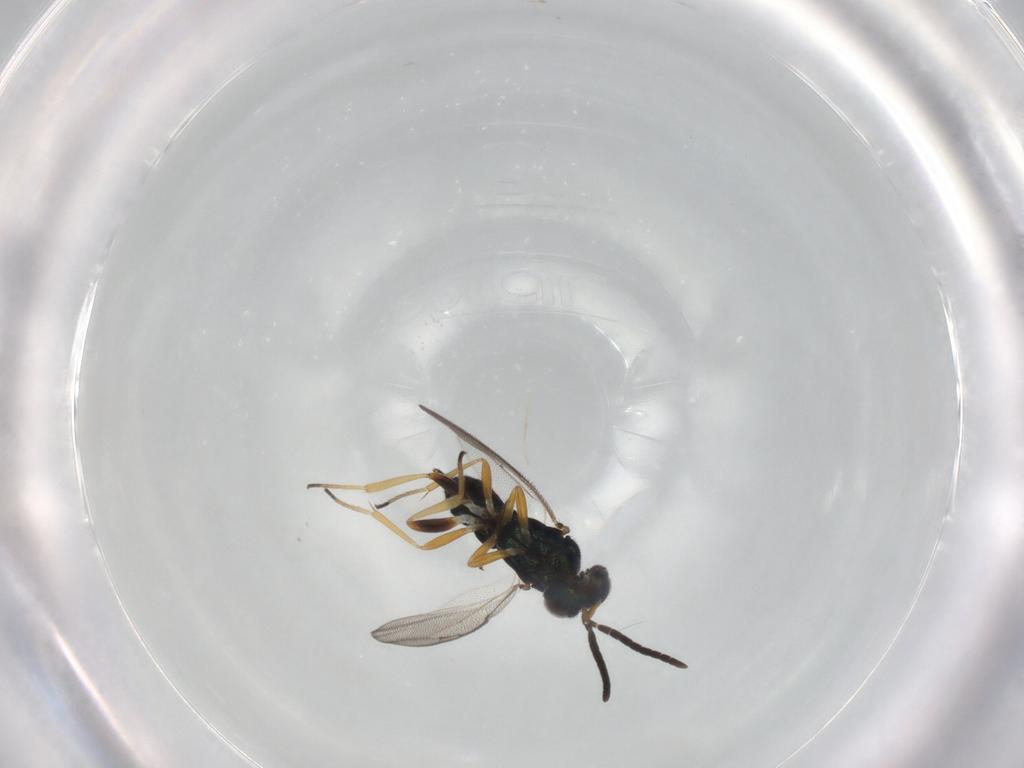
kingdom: Animalia
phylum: Arthropoda
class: Insecta
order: Hymenoptera
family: Eupelmidae
